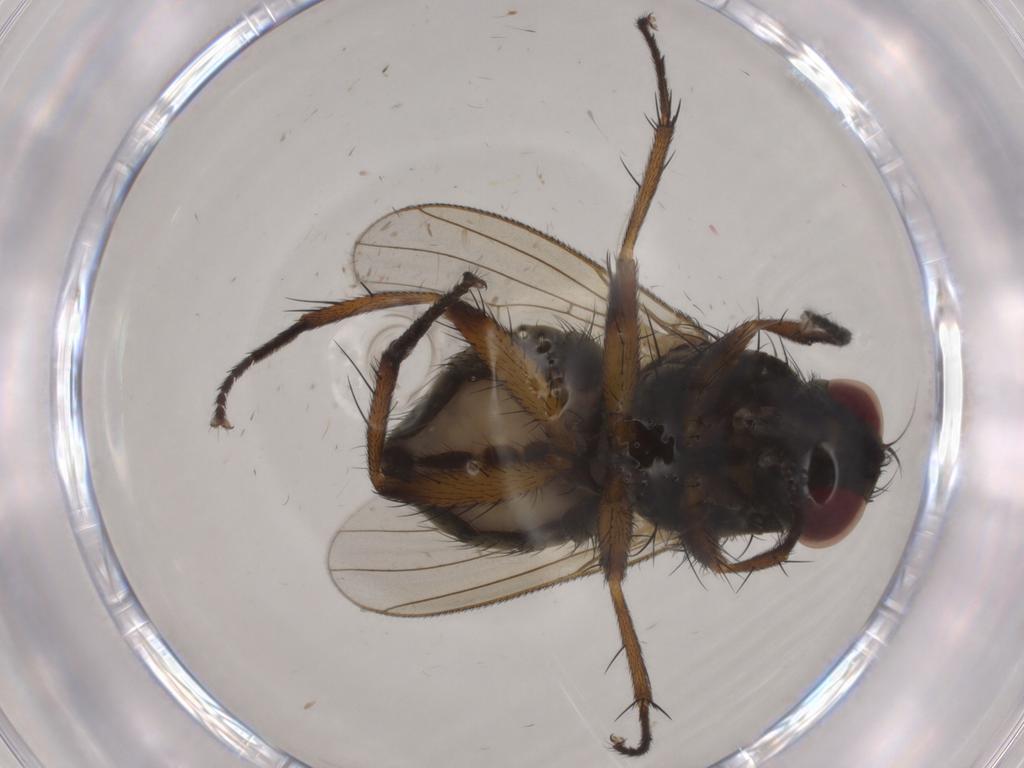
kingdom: Animalia
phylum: Arthropoda
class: Insecta
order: Diptera
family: Muscidae
